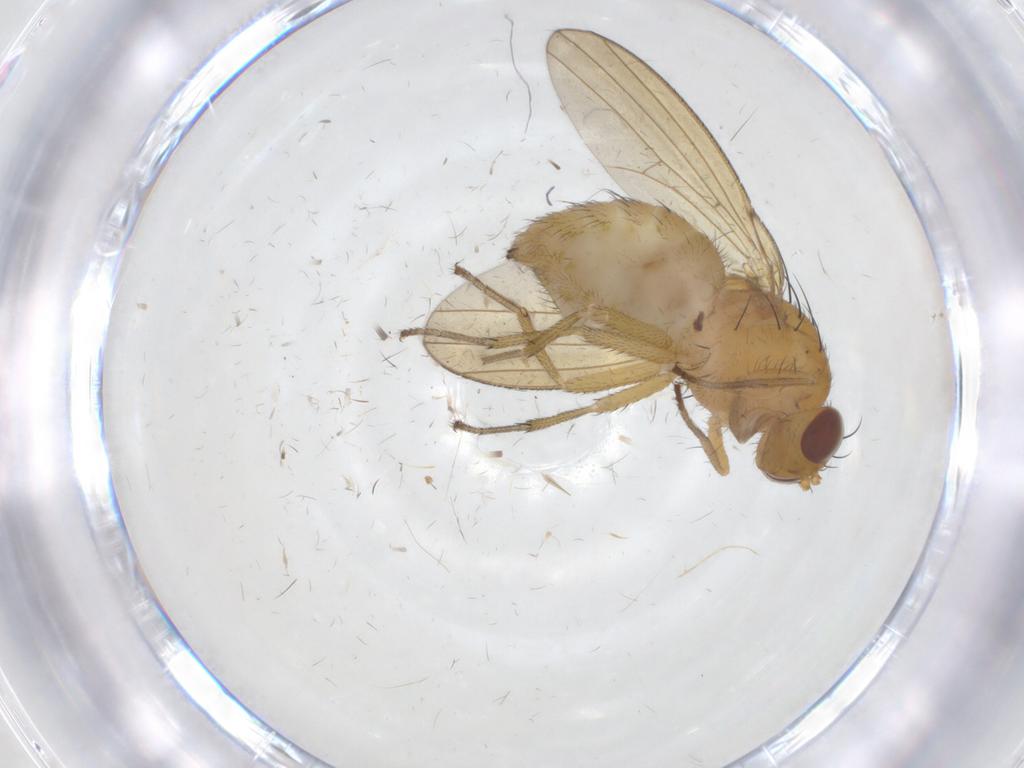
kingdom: Animalia
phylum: Arthropoda
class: Insecta
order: Diptera
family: Lauxaniidae
